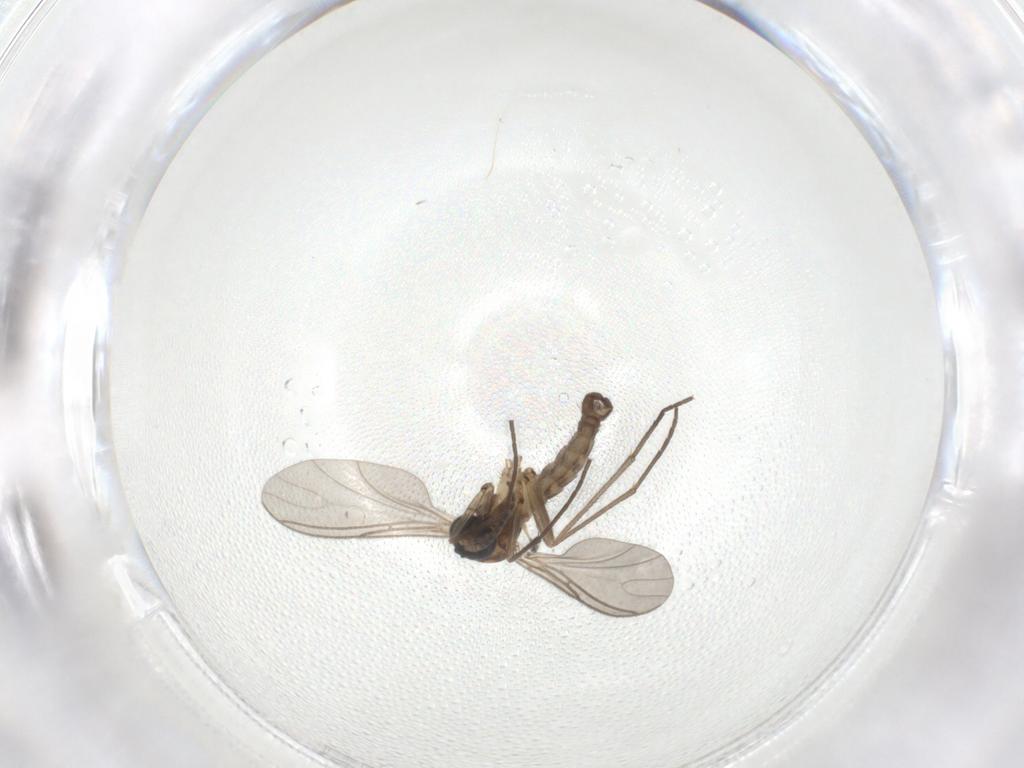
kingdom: Animalia
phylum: Arthropoda
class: Insecta
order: Diptera
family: Sciaridae
